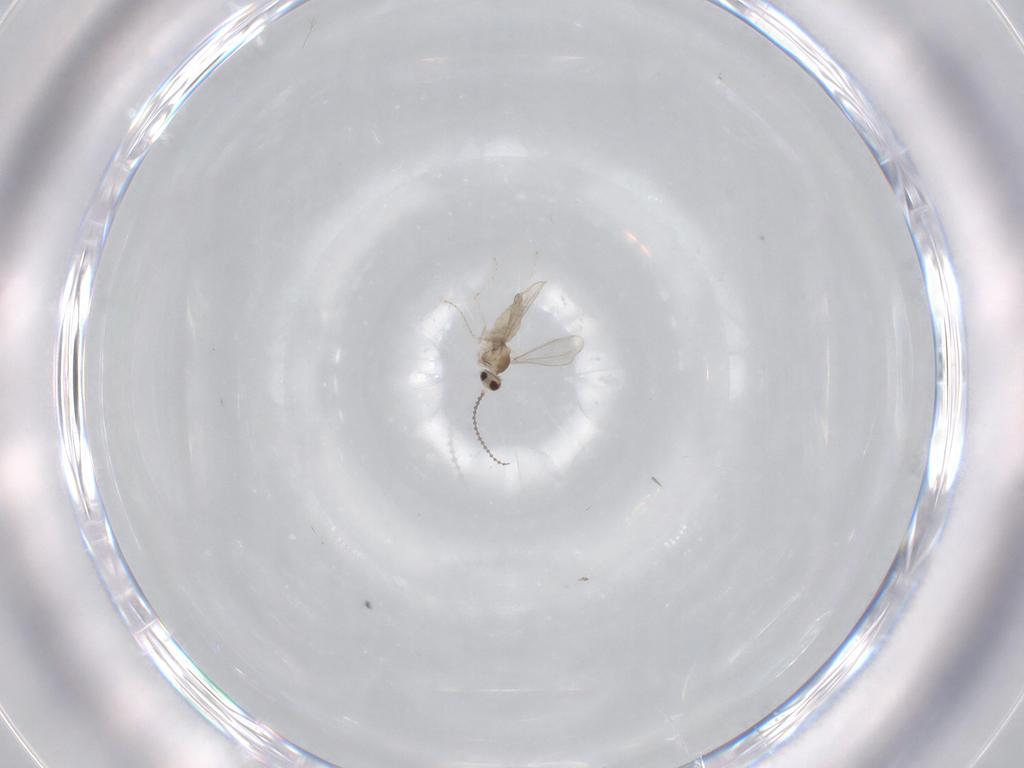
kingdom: Animalia
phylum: Arthropoda
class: Insecta
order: Diptera
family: Cecidomyiidae
